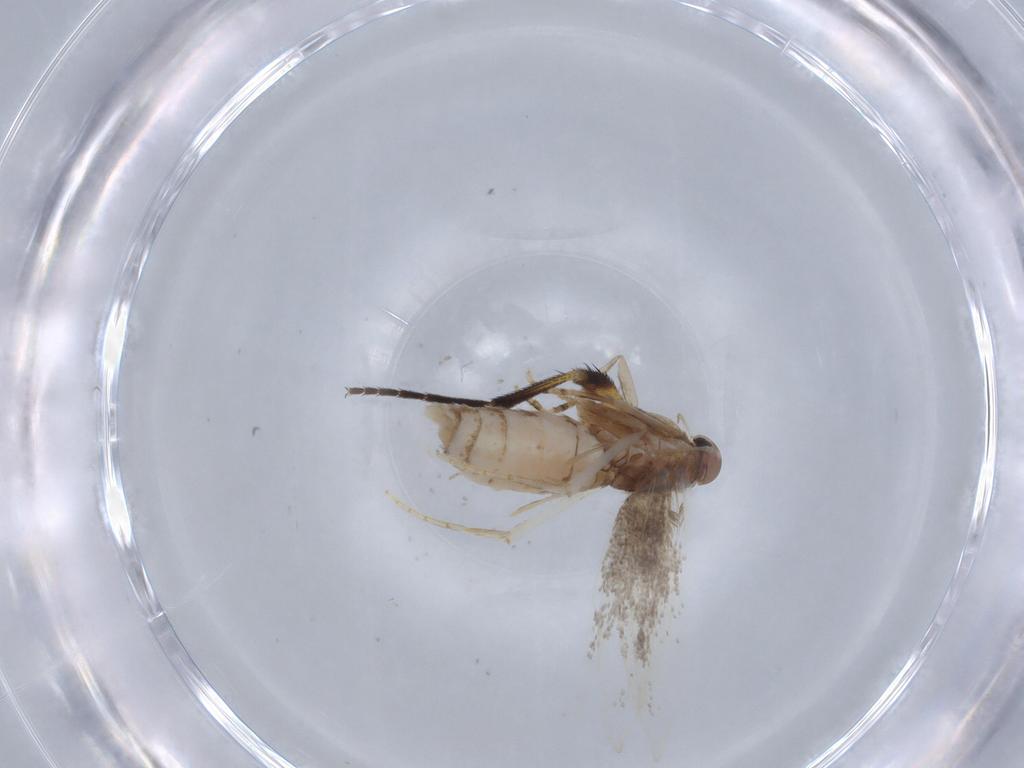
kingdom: Animalia
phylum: Arthropoda
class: Insecta
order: Lepidoptera
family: Elachistidae
